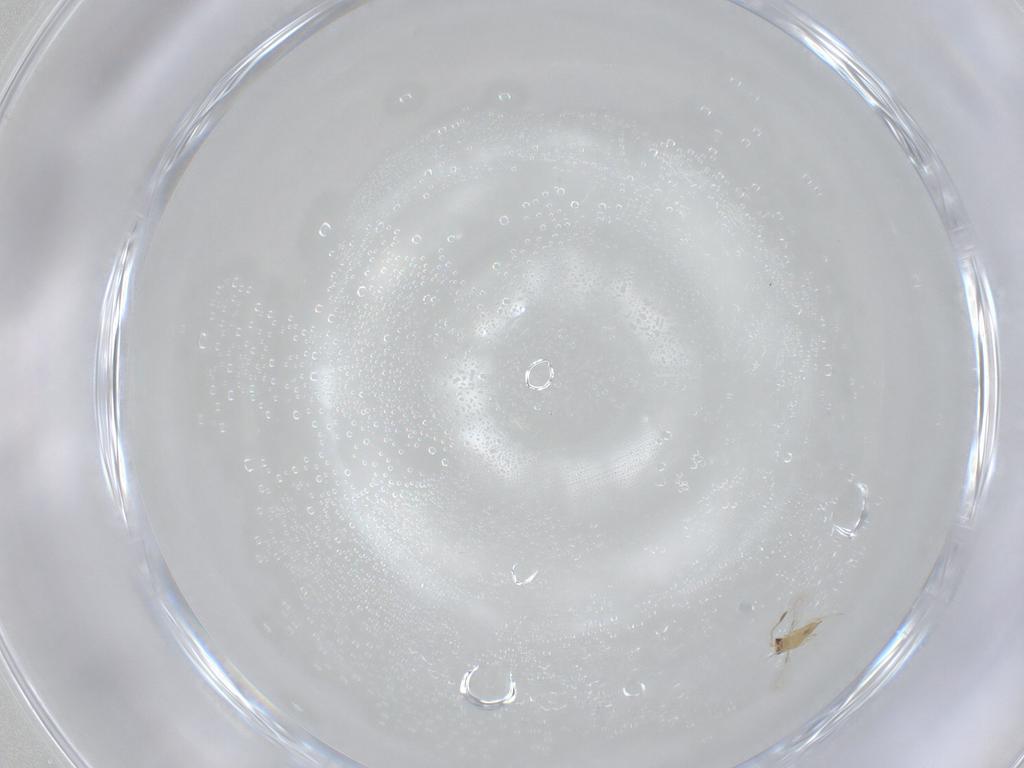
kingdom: Animalia
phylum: Arthropoda
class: Insecta
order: Hymenoptera
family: Mymaridae
